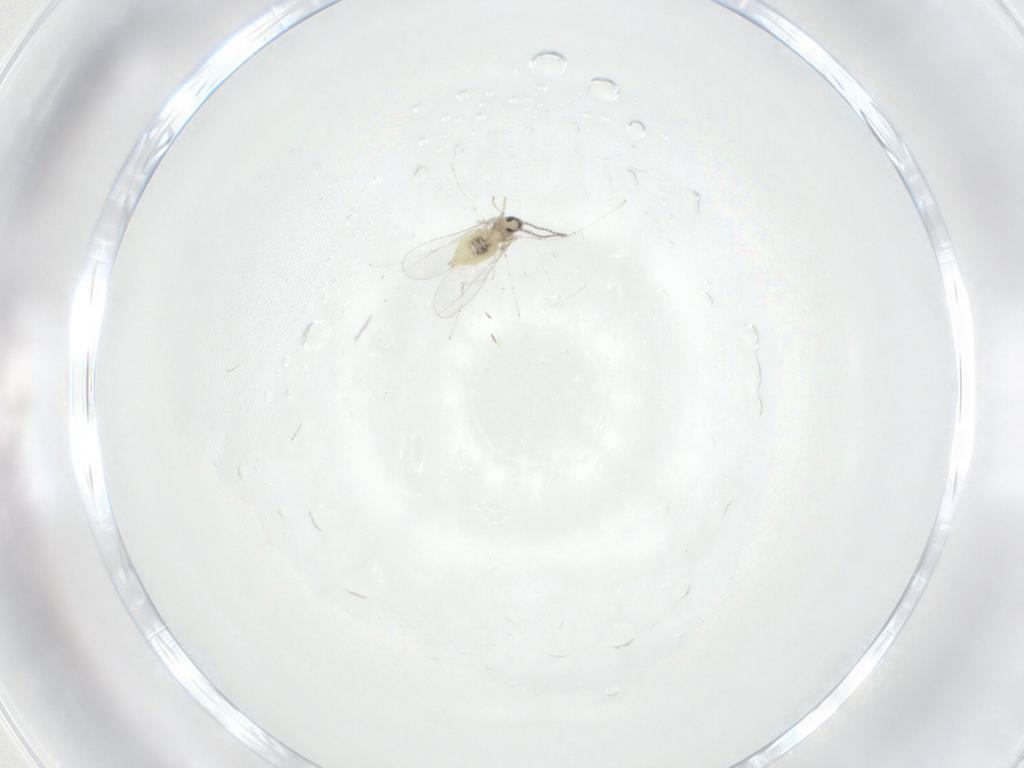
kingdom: Animalia
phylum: Arthropoda
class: Insecta
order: Diptera
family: Cecidomyiidae
